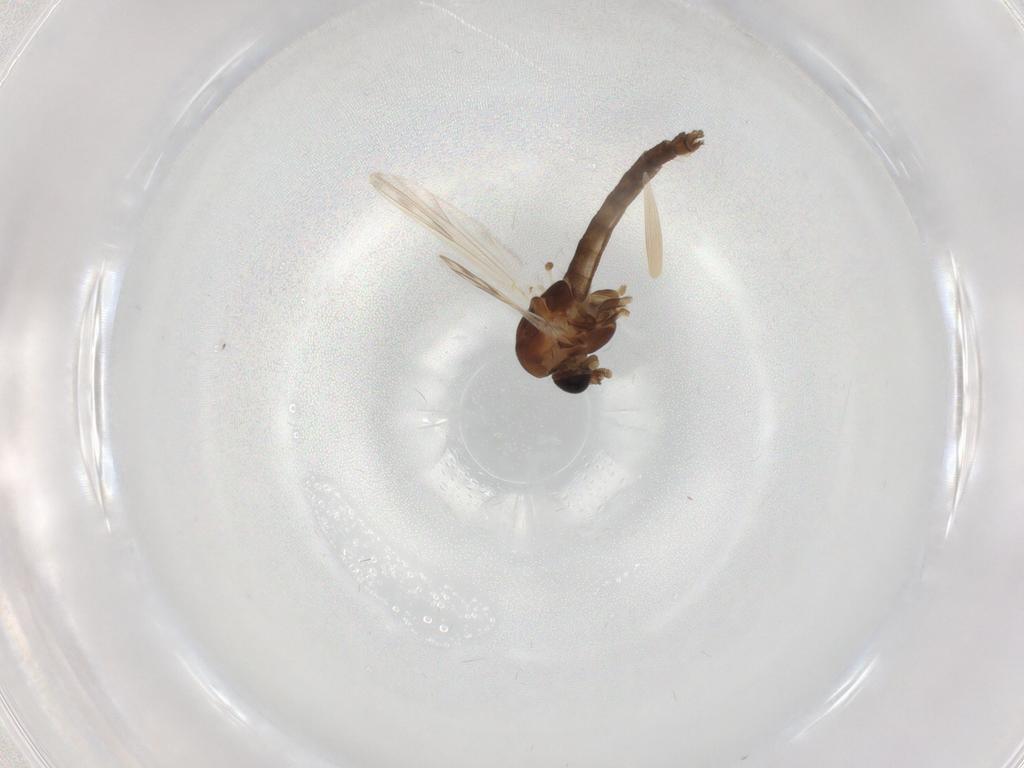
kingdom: Animalia
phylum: Arthropoda
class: Insecta
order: Diptera
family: Chironomidae
